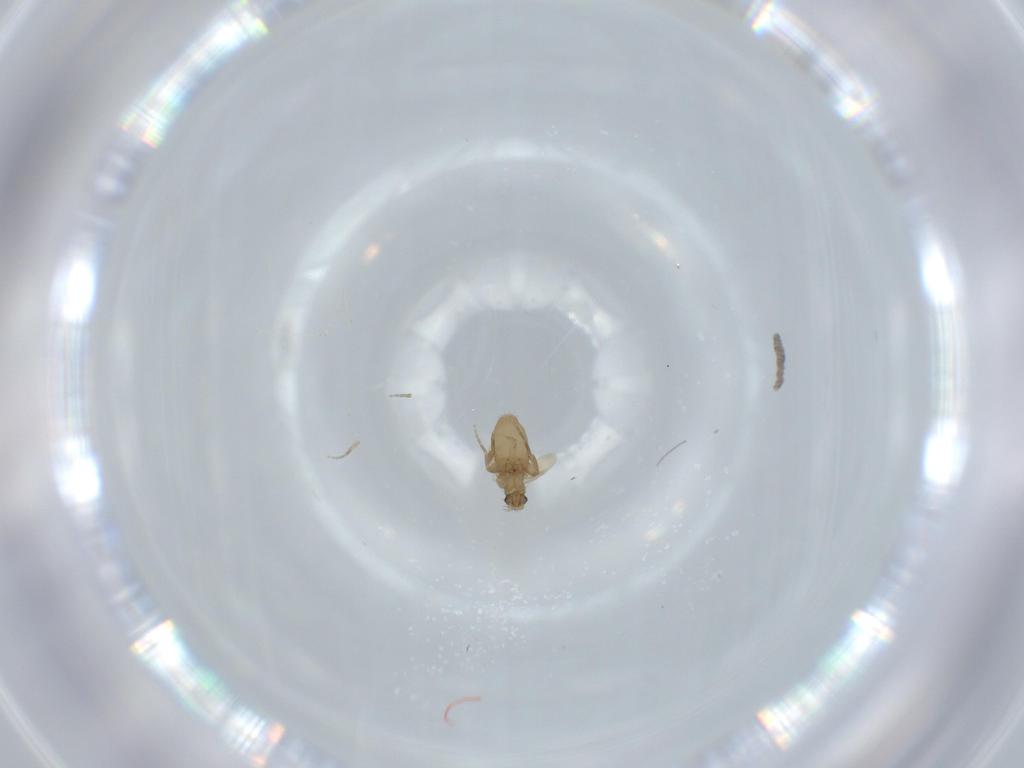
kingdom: Animalia
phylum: Arthropoda
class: Insecta
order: Diptera
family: Phoridae
